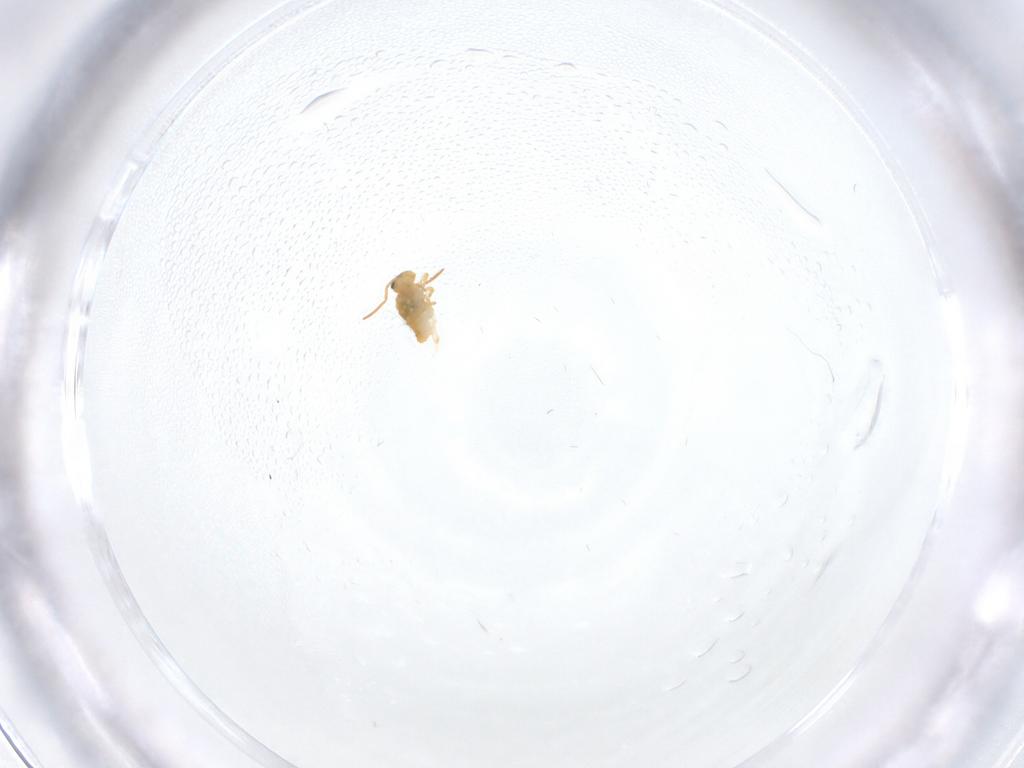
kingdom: Animalia
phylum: Arthropoda
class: Collembola
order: Symphypleona
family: Katiannidae
